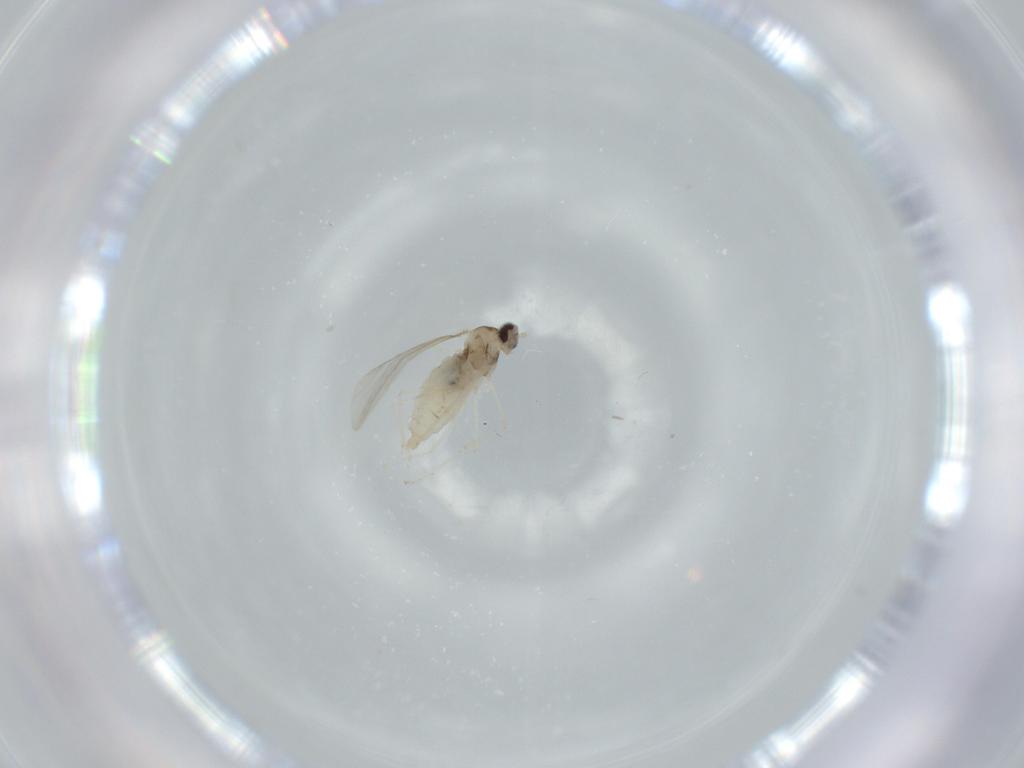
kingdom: Animalia
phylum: Arthropoda
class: Insecta
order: Diptera
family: Cecidomyiidae
